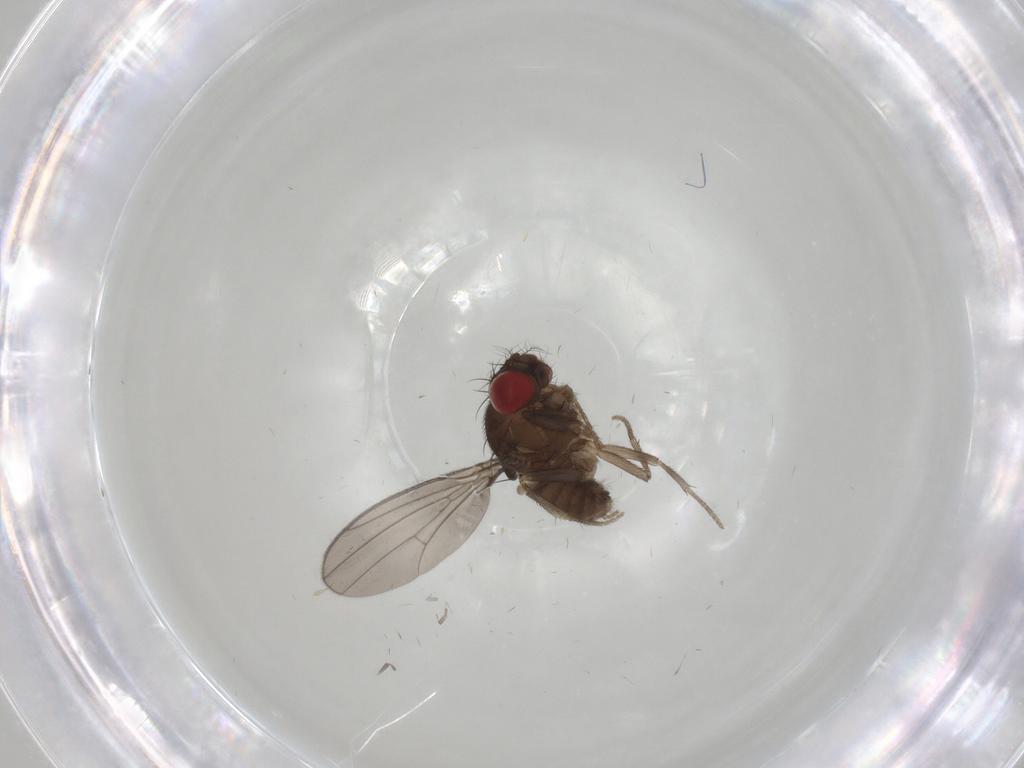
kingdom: Animalia
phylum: Arthropoda
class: Insecta
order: Diptera
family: Drosophilidae
